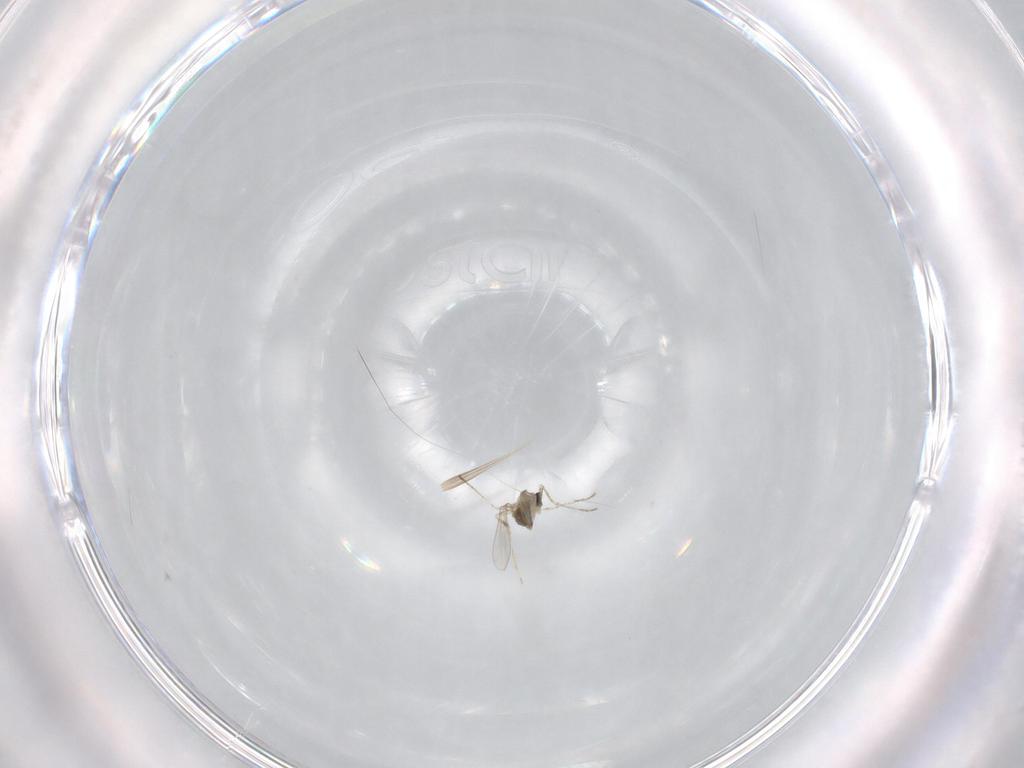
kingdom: Animalia
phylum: Arthropoda
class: Insecta
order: Diptera
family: Cecidomyiidae
